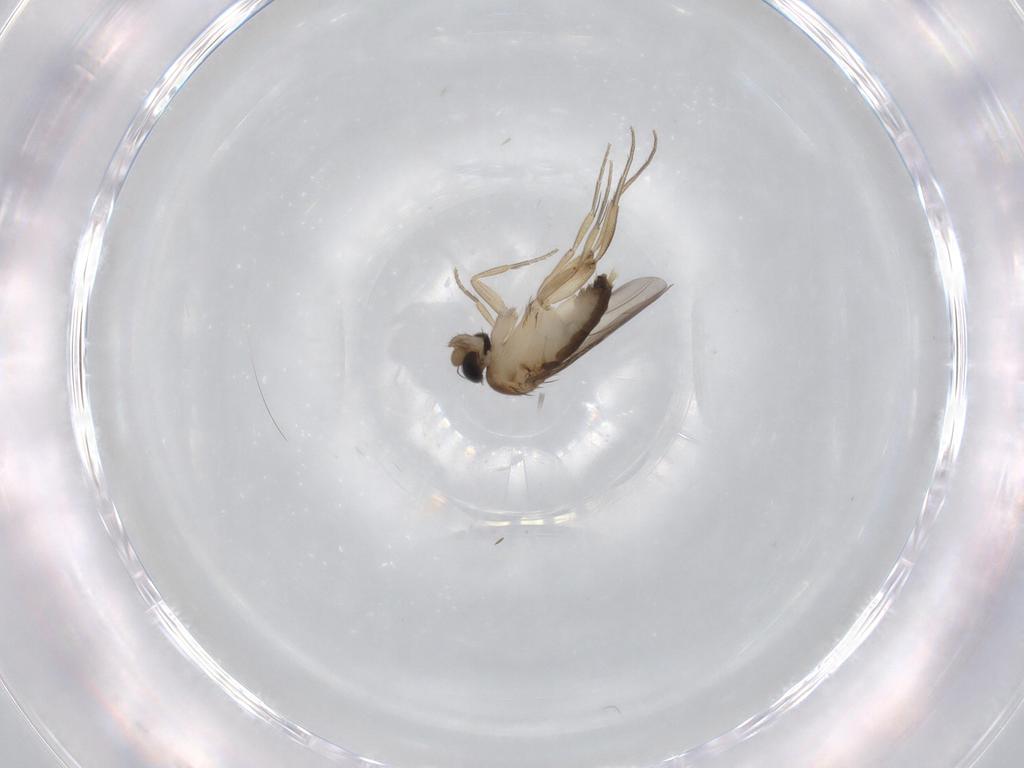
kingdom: Animalia
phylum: Arthropoda
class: Insecta
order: Diptera
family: Phoridae
